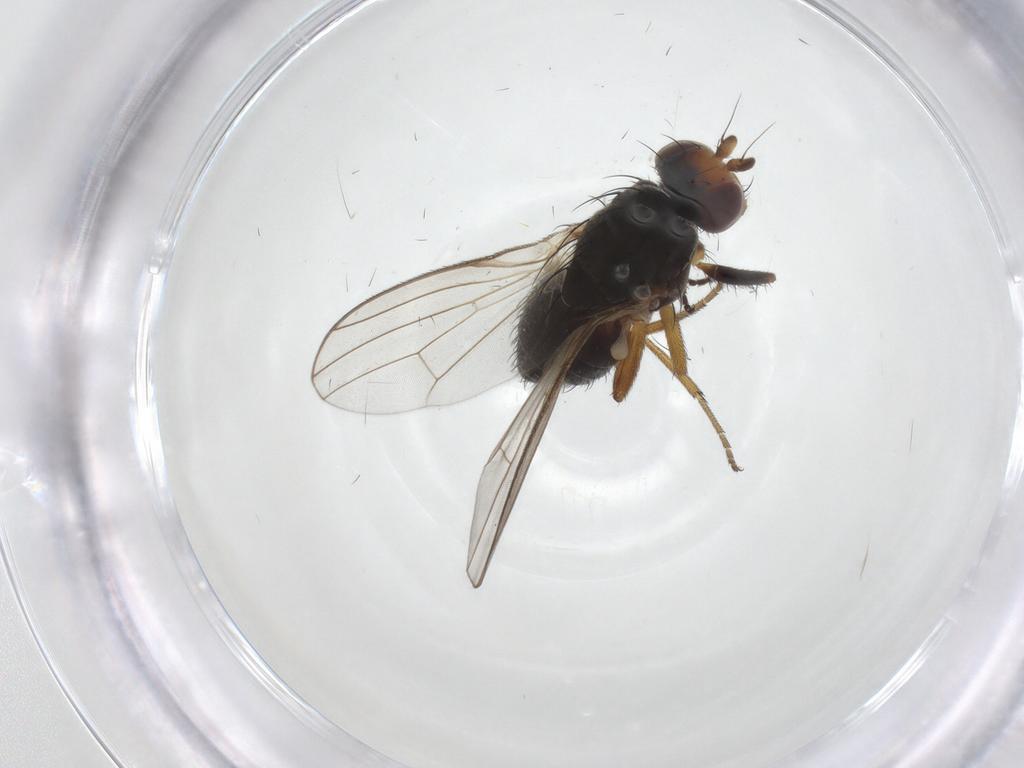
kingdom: Animalia
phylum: Arthropoda
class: Insecta
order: Diptera
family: Heleomyzidae
